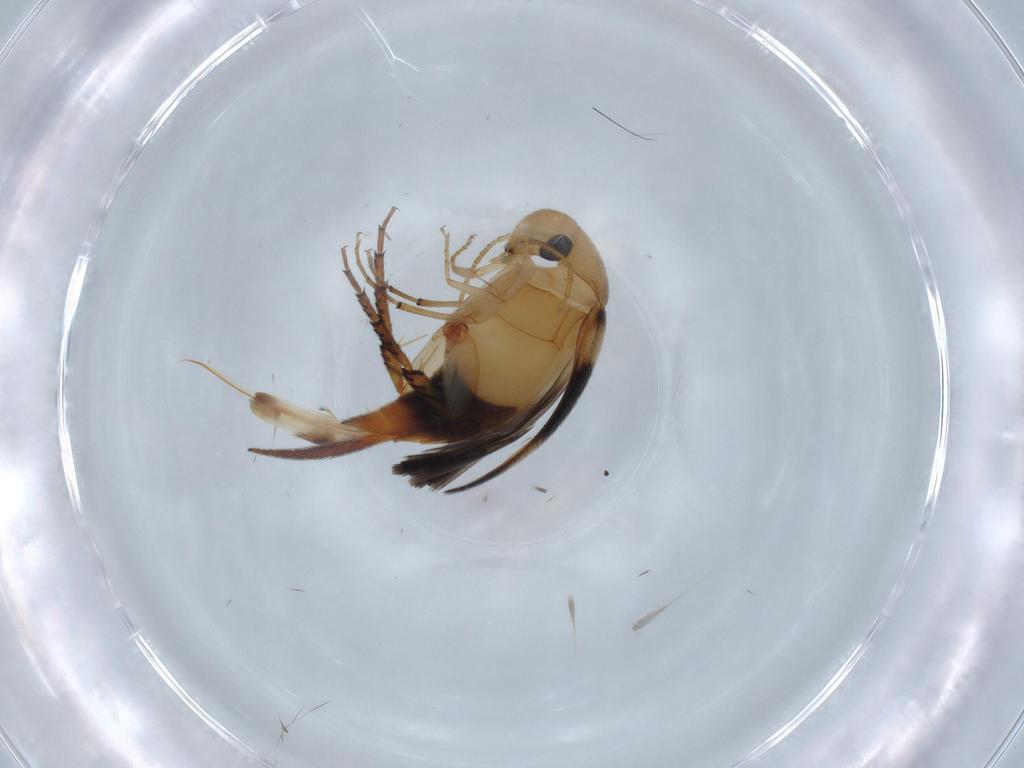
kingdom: Animalia
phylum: Arthropoda
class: Insecta
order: Coleoptera
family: Mordellidae
